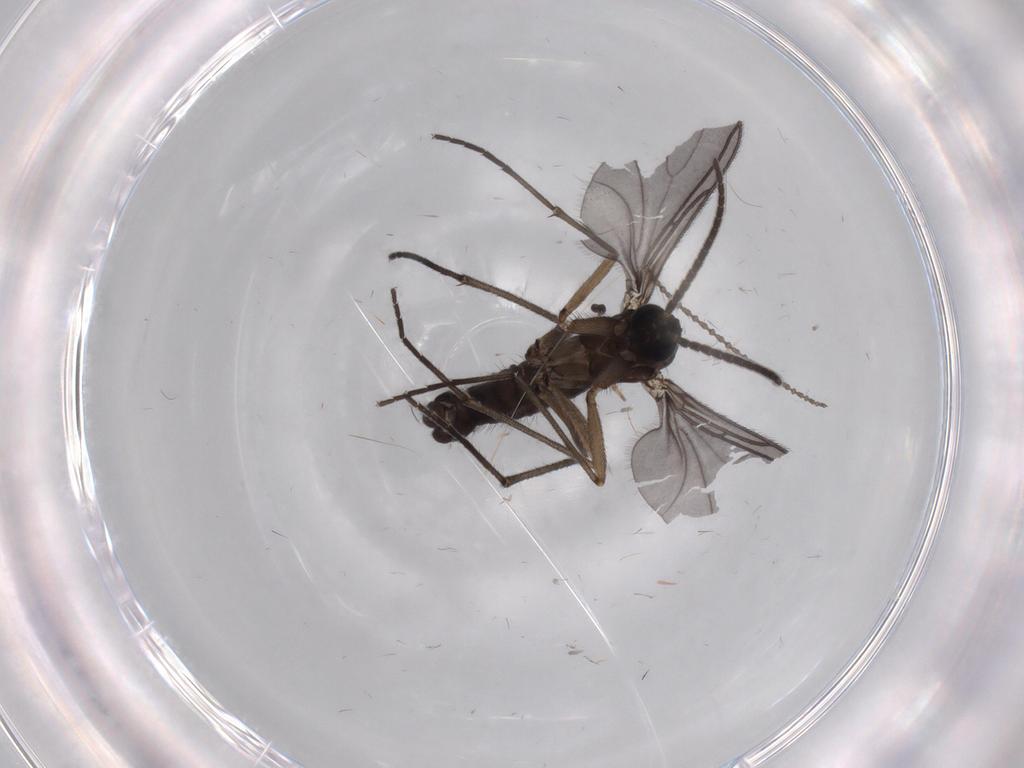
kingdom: Animalia
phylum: Arthropoda
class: Insecta
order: Diptera
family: Sciaridae
